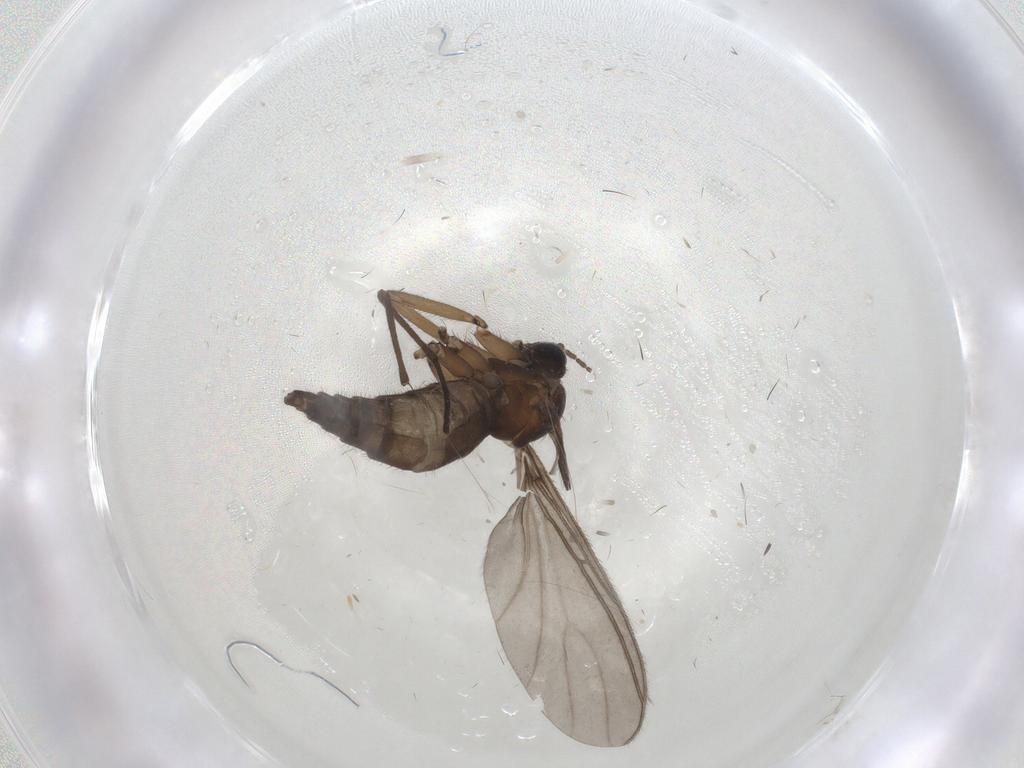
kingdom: Animalia
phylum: Arthropoda
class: Insecta
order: Diptera
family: Sciaridae
